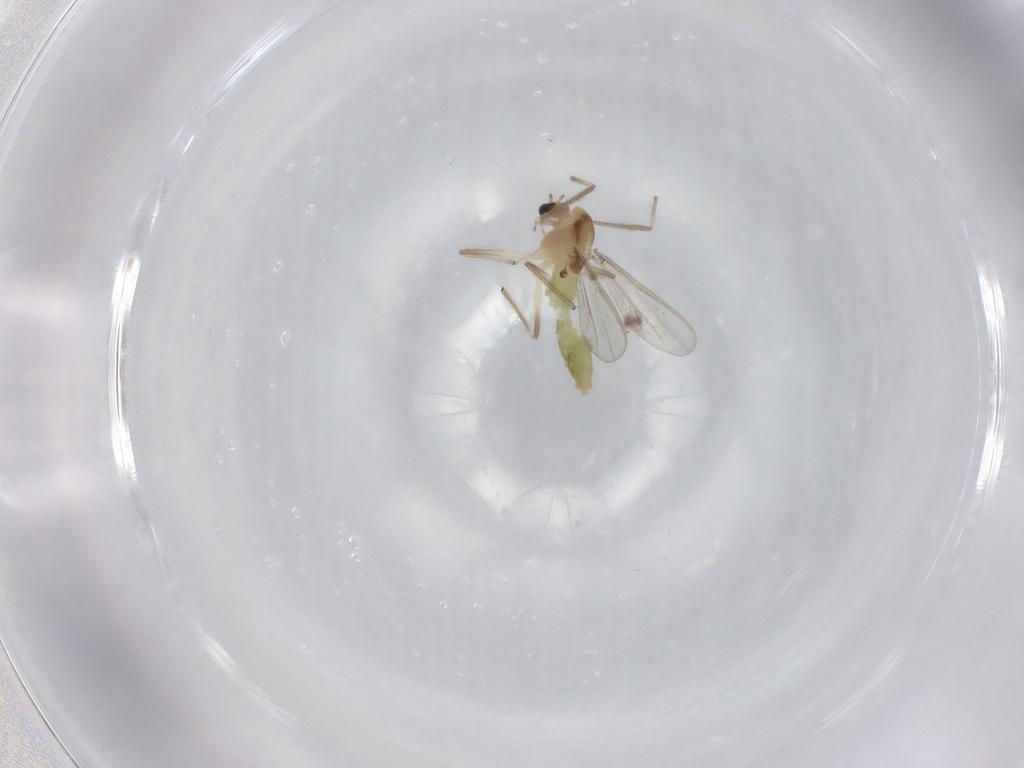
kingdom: Animalia
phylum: Arthropoda
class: Insecta
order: Diptera
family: Chironomidae
